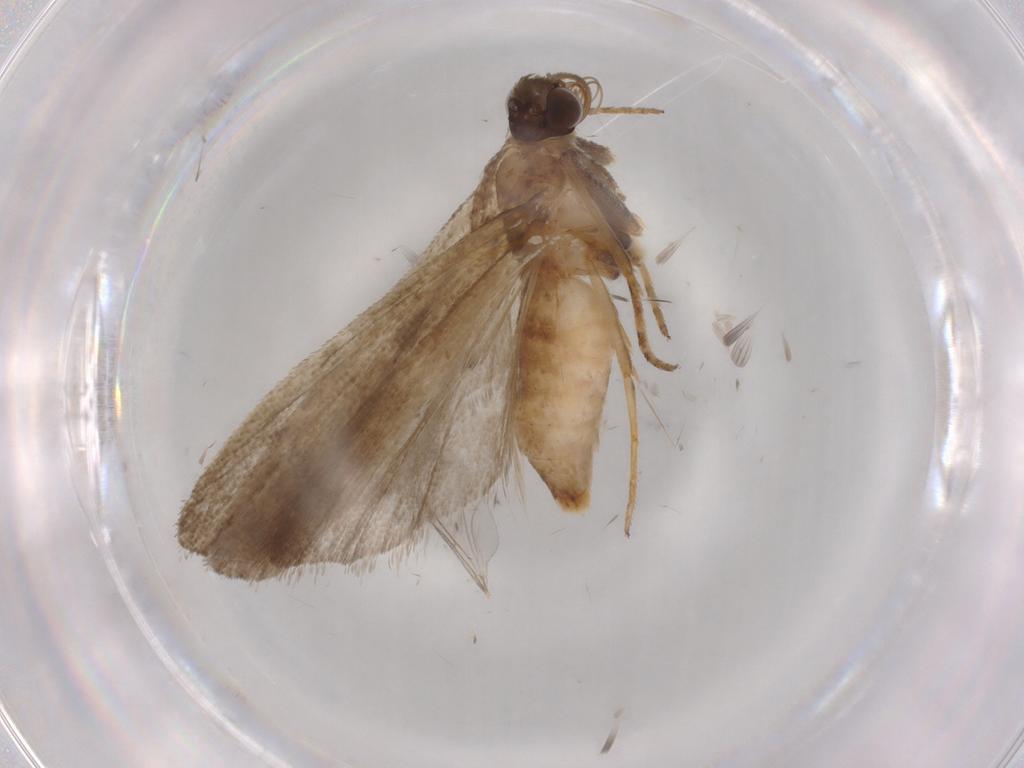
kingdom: Animalia
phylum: Arthropoda
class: Insecta
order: Lepidoptera
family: Noctuidae
